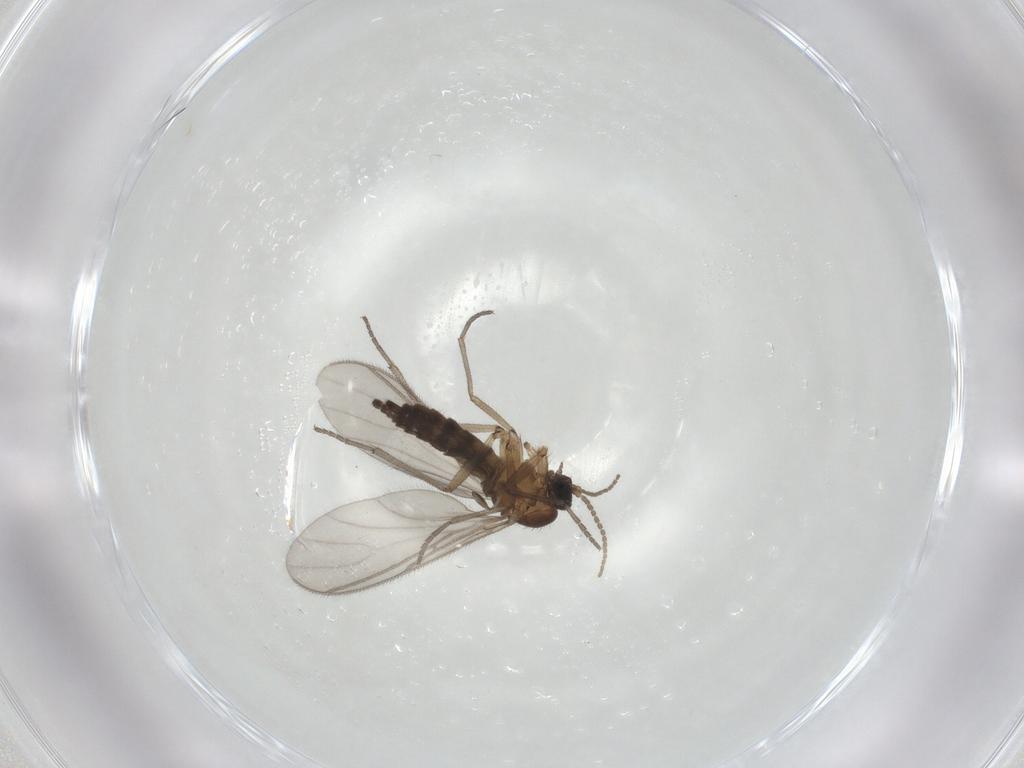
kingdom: Animalia
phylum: Arthropoda
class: Insecta
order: Diptera
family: Sciaridae
